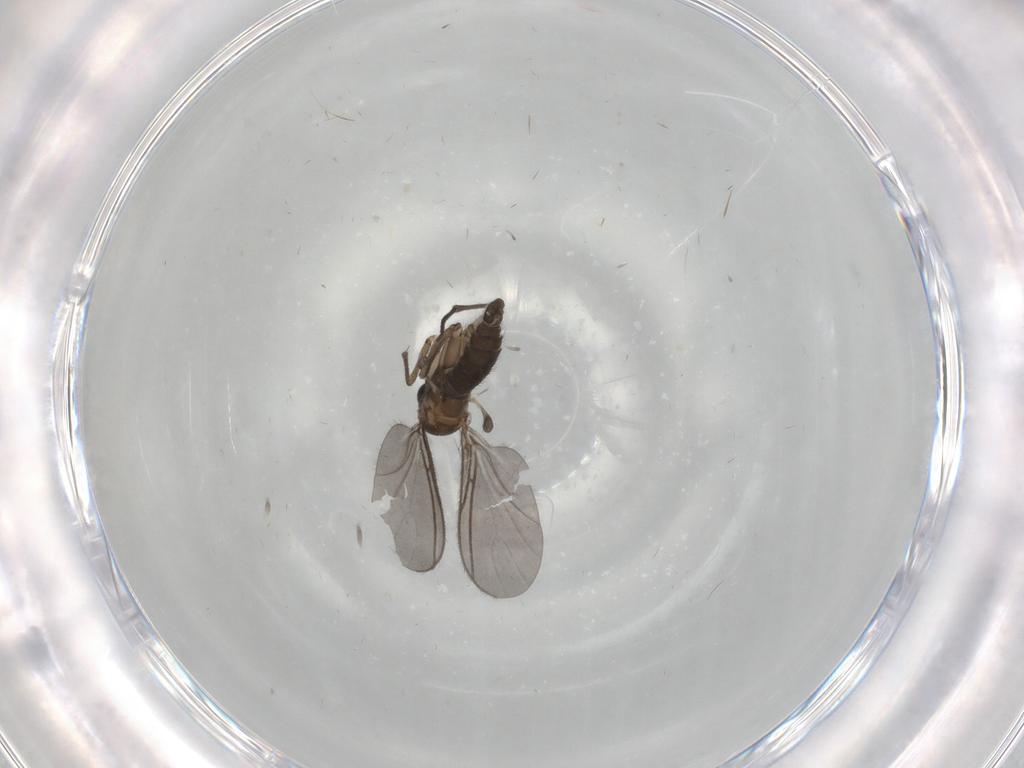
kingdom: Animalia
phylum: Arthropoda
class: Insecta
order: Diptera
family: Sciaridae
